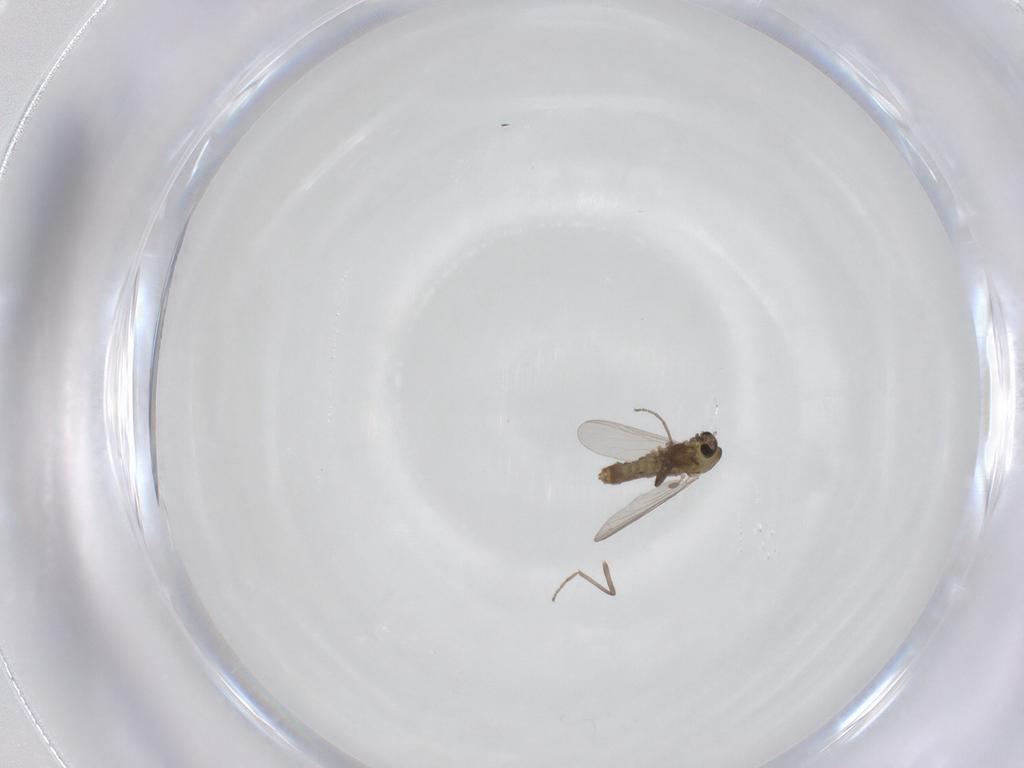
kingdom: Animalia
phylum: Arthropoda
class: Insecta
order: Diptera
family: Chironomidae
